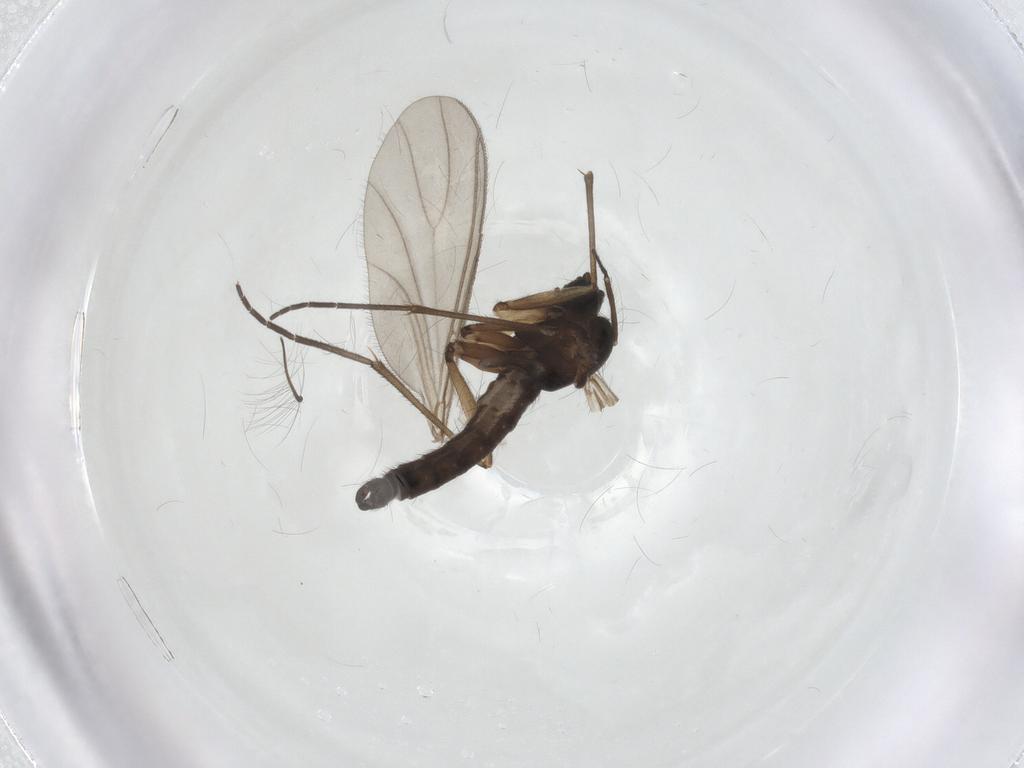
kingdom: Animalia
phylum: Arthropoda
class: Insecta
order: Diptera
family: Sciaridae
